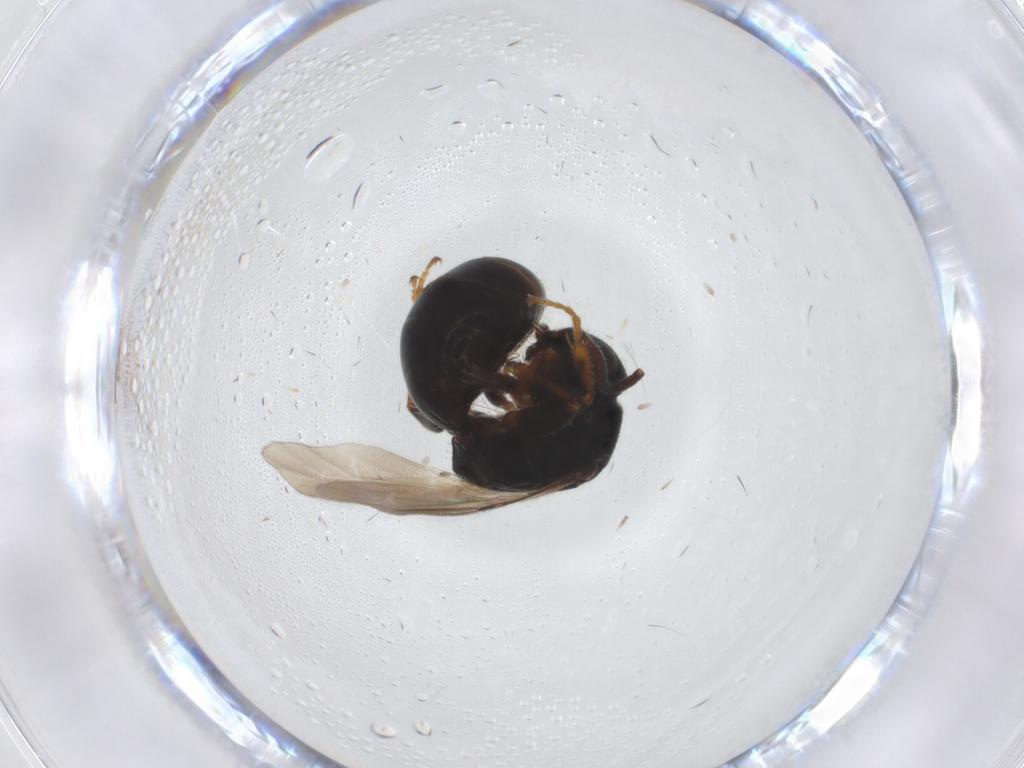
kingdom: Animalia
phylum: Arthropoda
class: Insecta
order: Hymenoptera
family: Bethylidae
